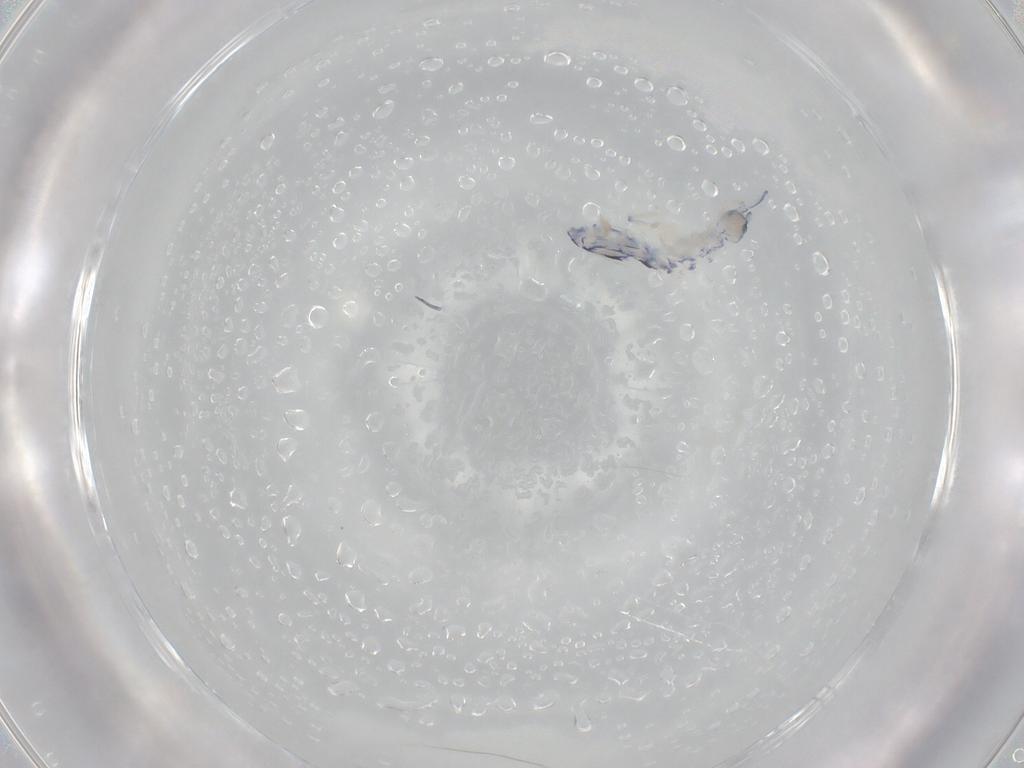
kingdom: Animalia
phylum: Arthropoda
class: Collembola
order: Entomobryomorpha
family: Entomobryidae
